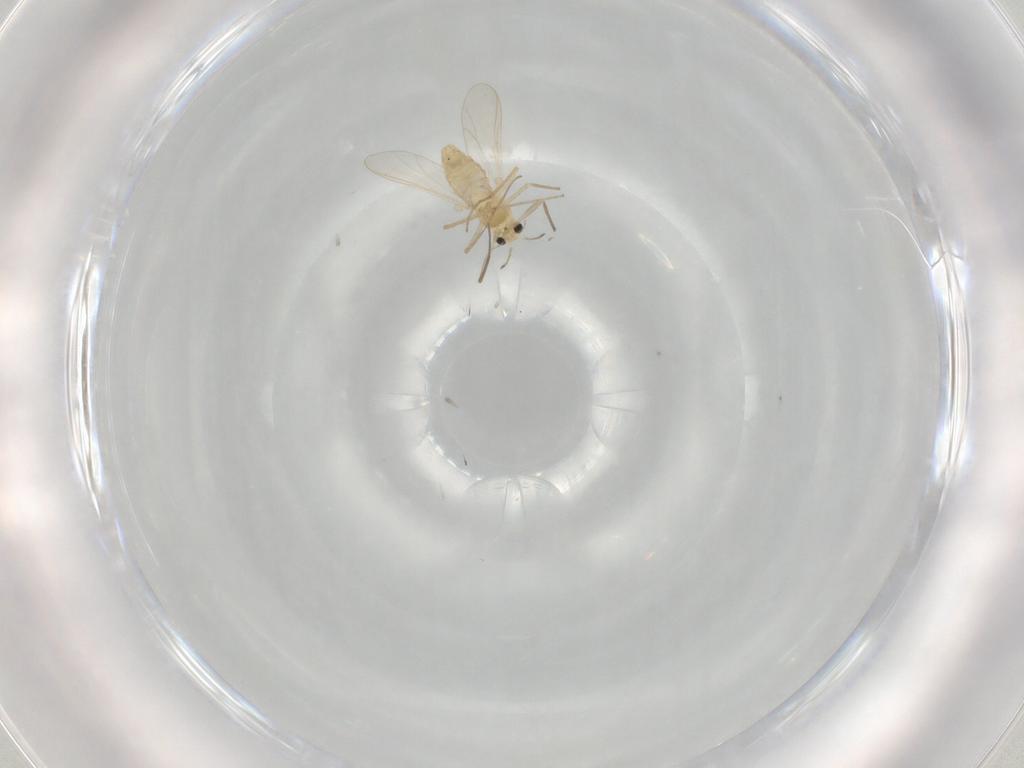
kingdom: Animalia
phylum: Arthropoda
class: Insecta
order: Diptera
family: Chironomidae
